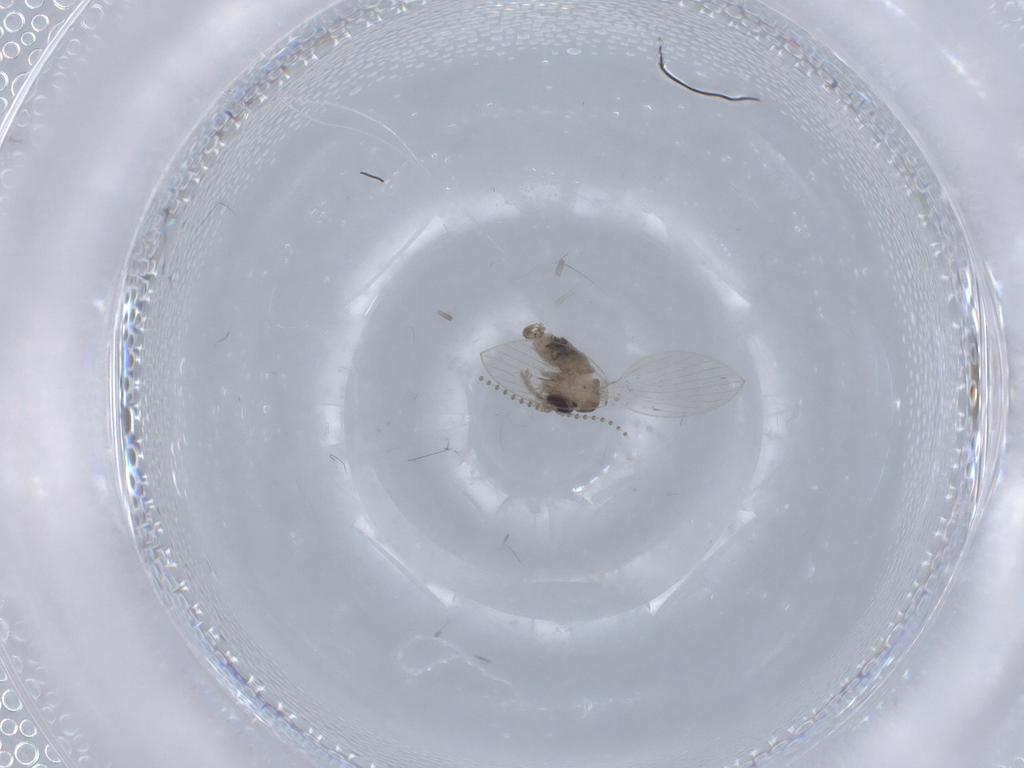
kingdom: Animalia
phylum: Arthropoda
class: Insecta
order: Diptera
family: Psychodidae
